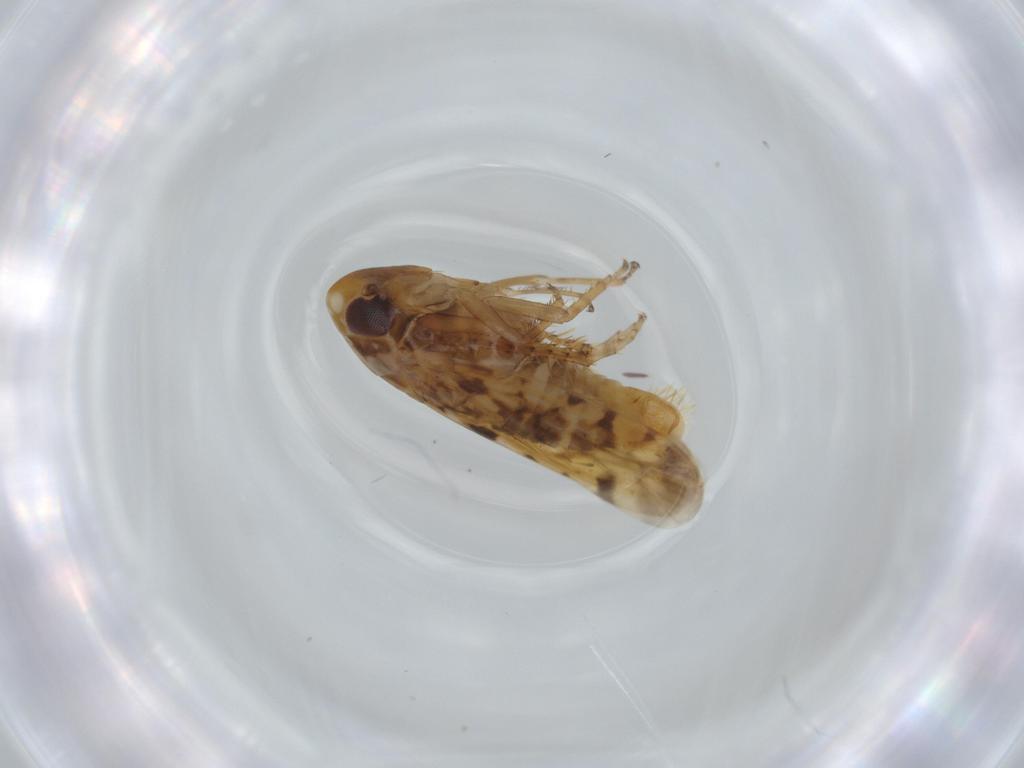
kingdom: Animalia
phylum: Arthropoda
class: Insecta
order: Hemiptera
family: Cicadellidae
